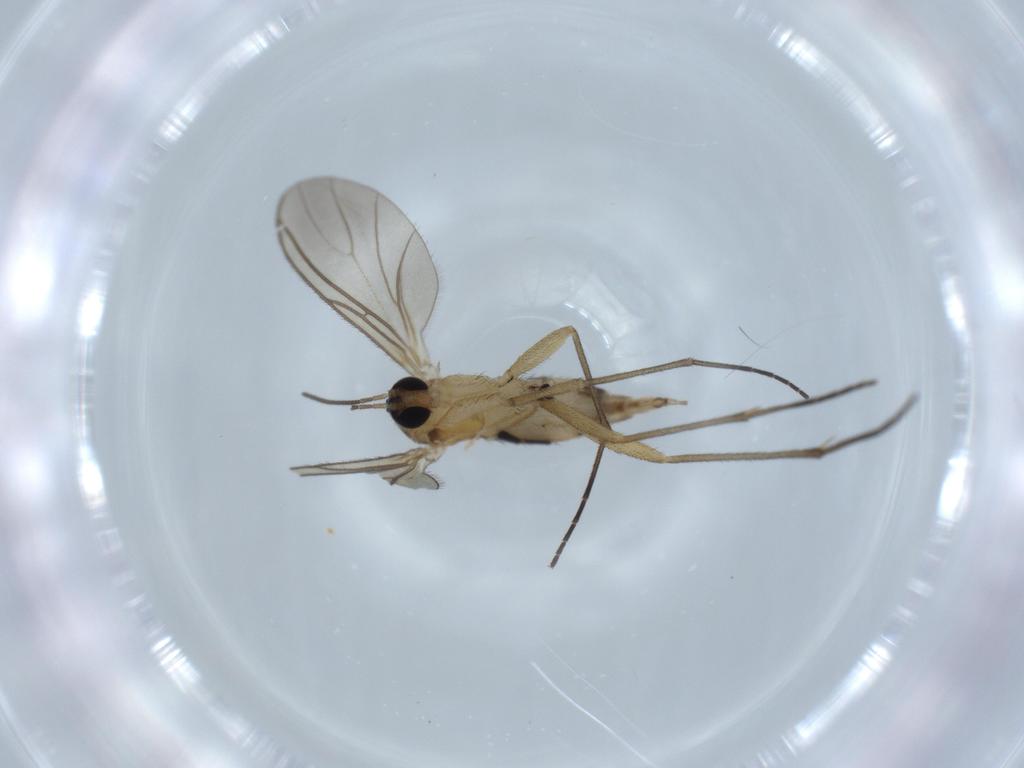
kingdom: Animalia
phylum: Arthropoda
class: Insecta
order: Diptera
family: Sciaridae
